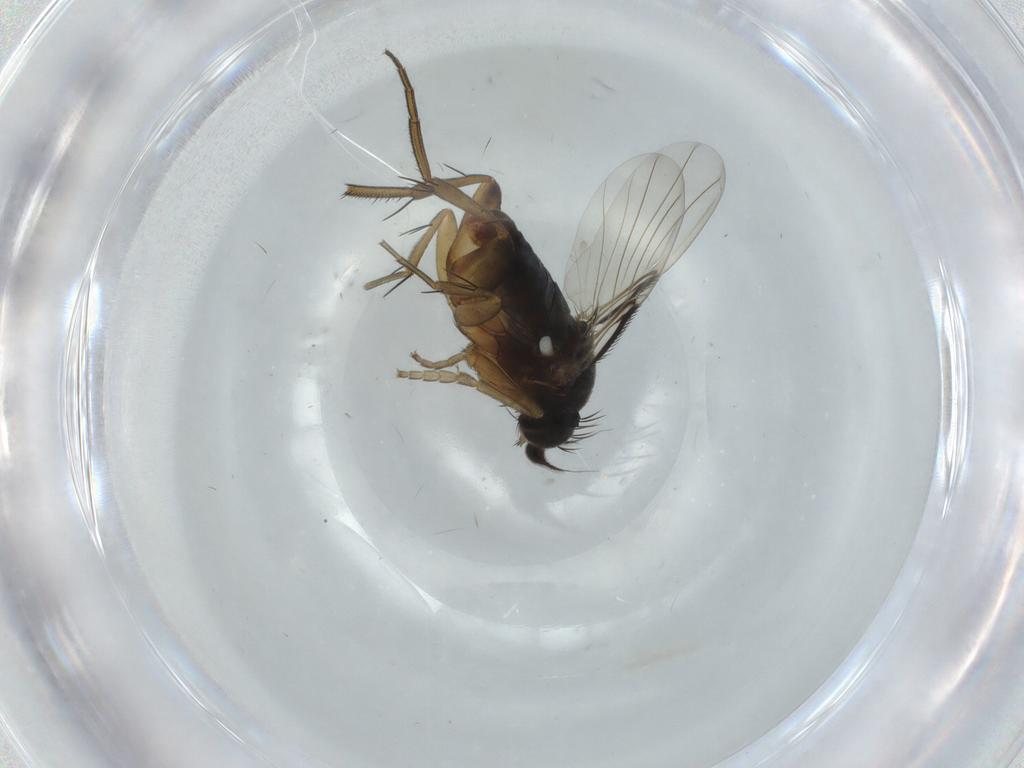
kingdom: Animalia
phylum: Arthropoda
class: Insecta
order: Diptera
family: Phoridae
